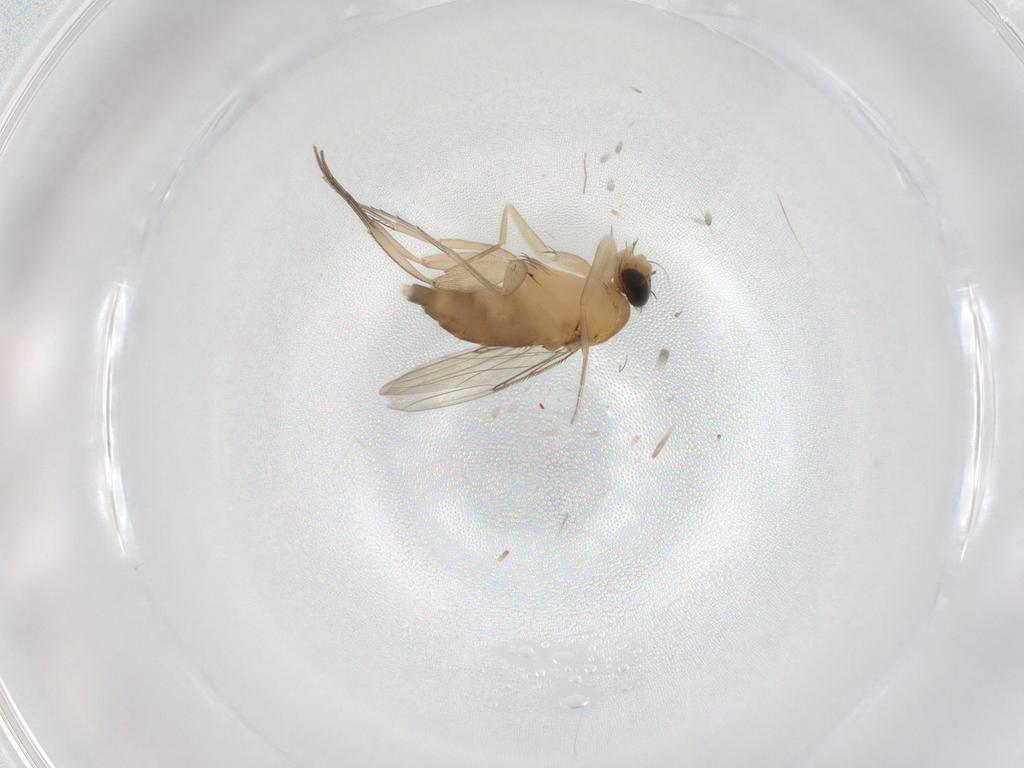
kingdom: Animalia
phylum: Arthropoda
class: Insecta
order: Diptera
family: Phoridae
